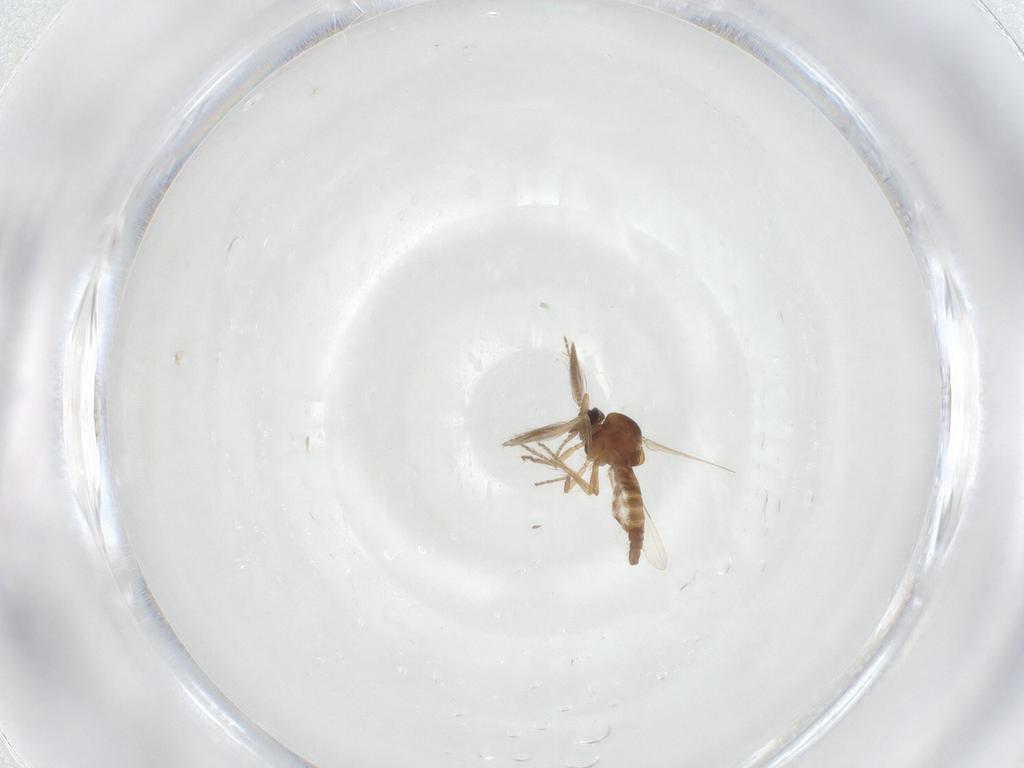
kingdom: Animalia
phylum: Arthropoda
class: Insecta
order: Diptera
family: Ceratopogonidae
